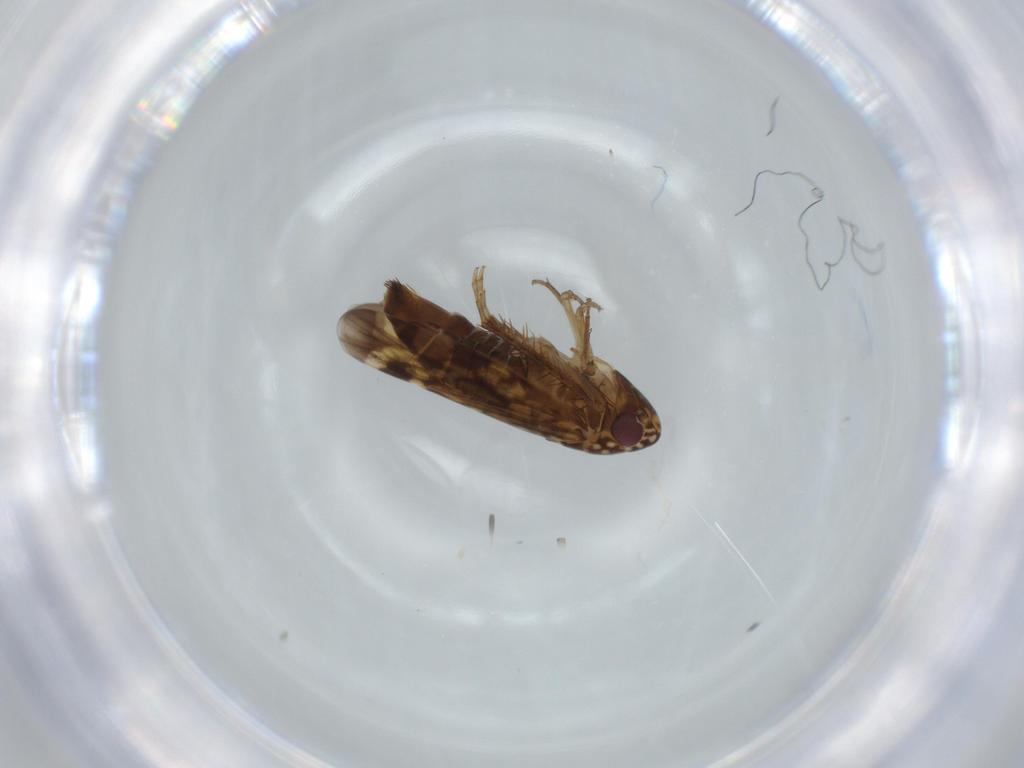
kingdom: Animalia
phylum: Arthropoda
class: Insecta
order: Hemiptera
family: Cicadellidae
